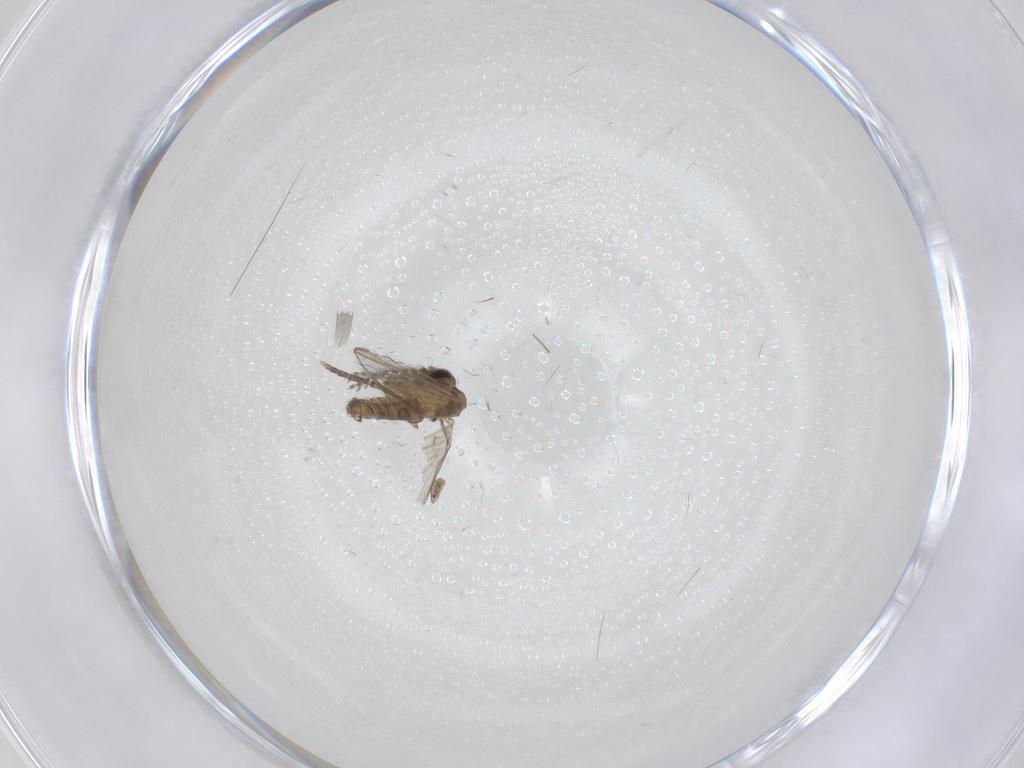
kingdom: Animalia
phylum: Arthropoda
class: Insecta
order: Diptera
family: Psychodidae
